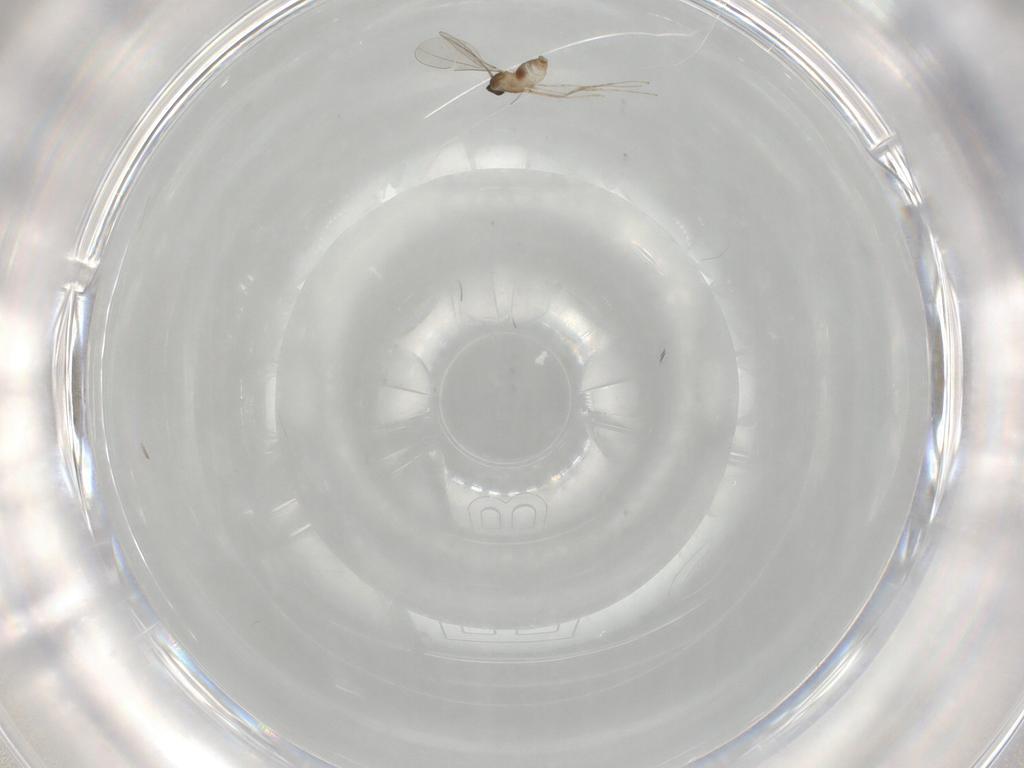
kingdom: Animalia
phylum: Arthropoda
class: Insecta
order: Diptera
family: Cecidomyiidae
